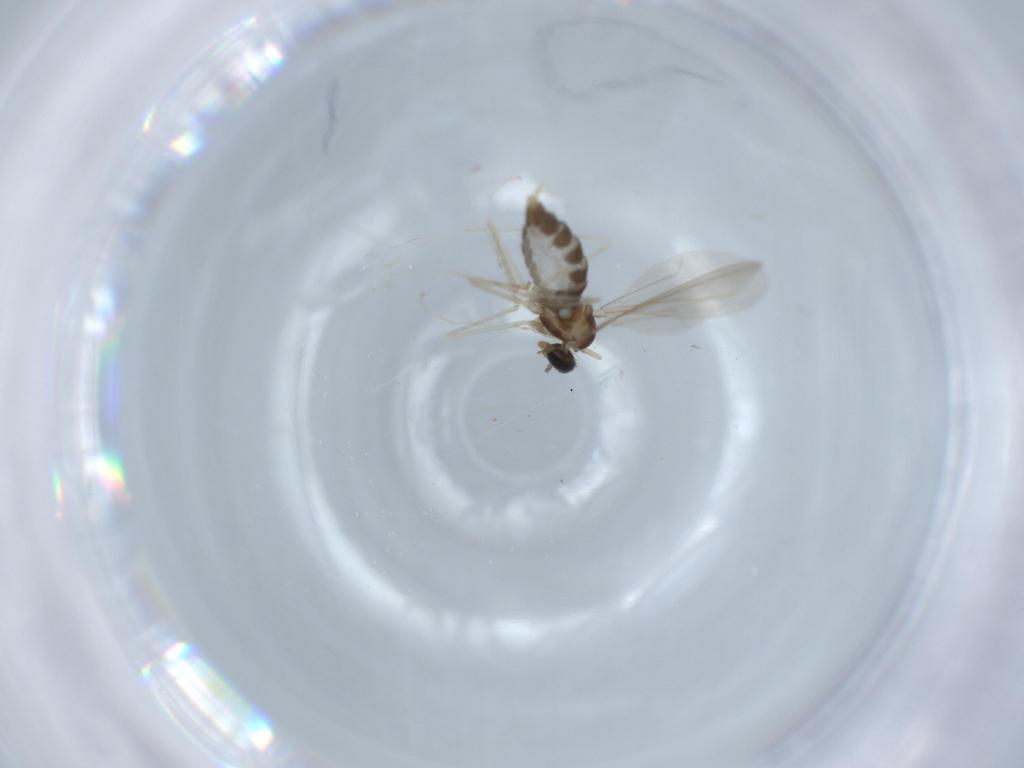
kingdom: Animalia
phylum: Arthropoda
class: Insecta
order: Diptera
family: Cecidomyiidae
